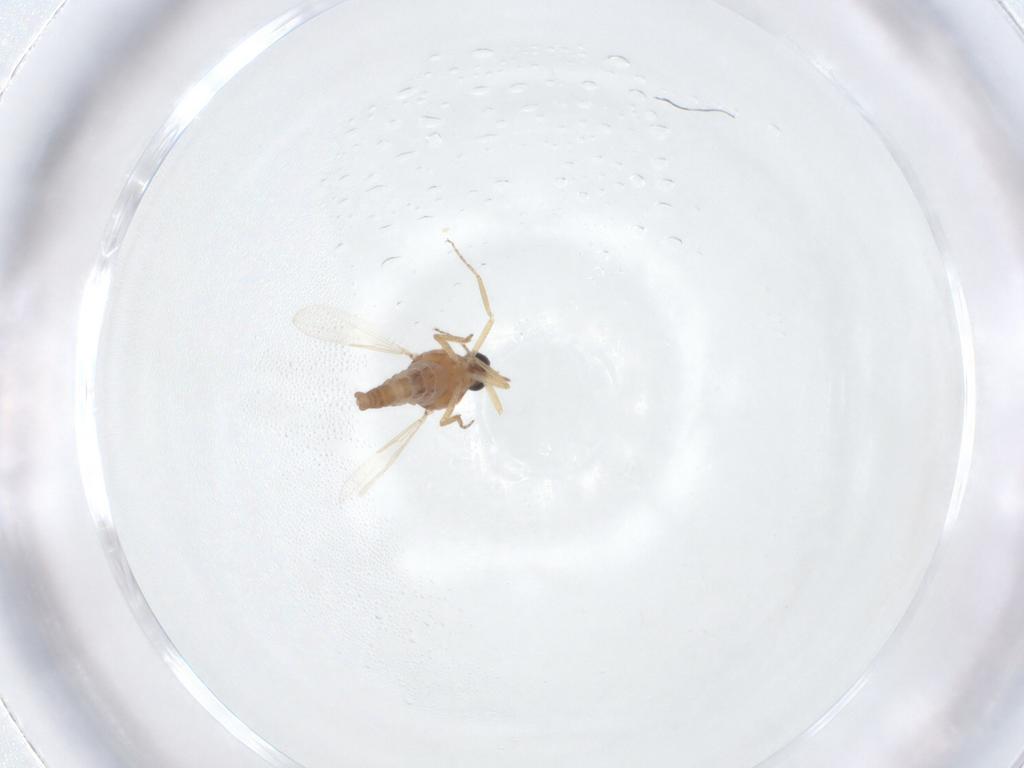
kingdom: Animalia
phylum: Arthropoda
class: Insecta
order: Diptera
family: Ceratopogonidae
